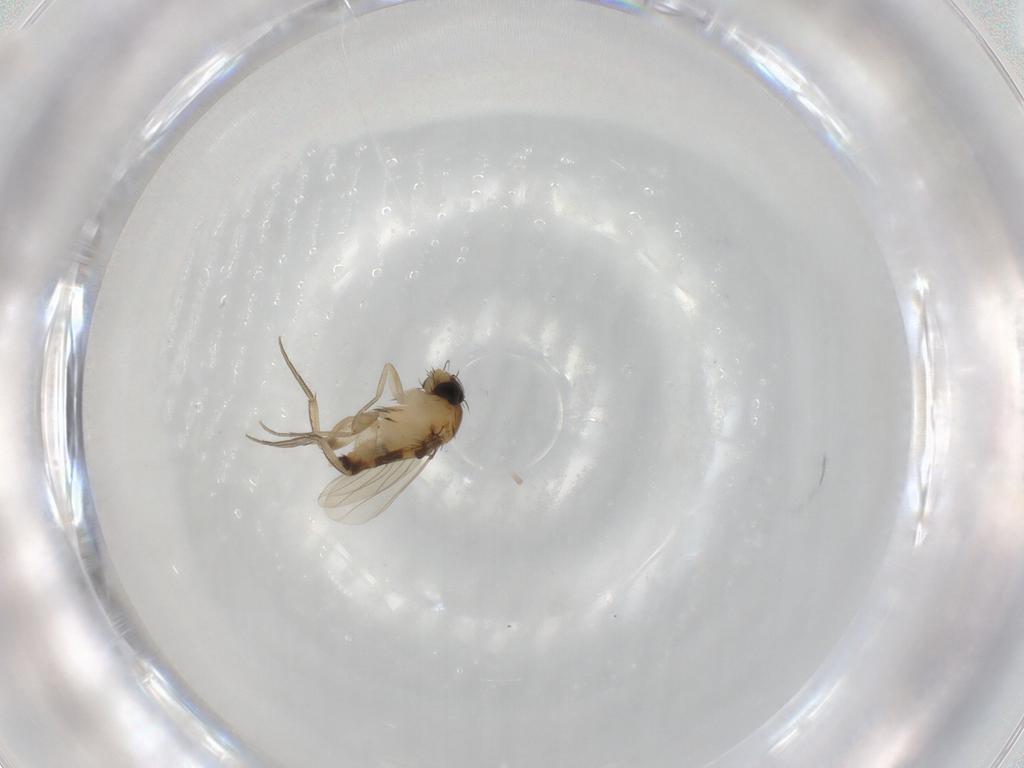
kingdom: Animalia
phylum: Arthropoda
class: Insecta
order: Diptera
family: Phoridae
